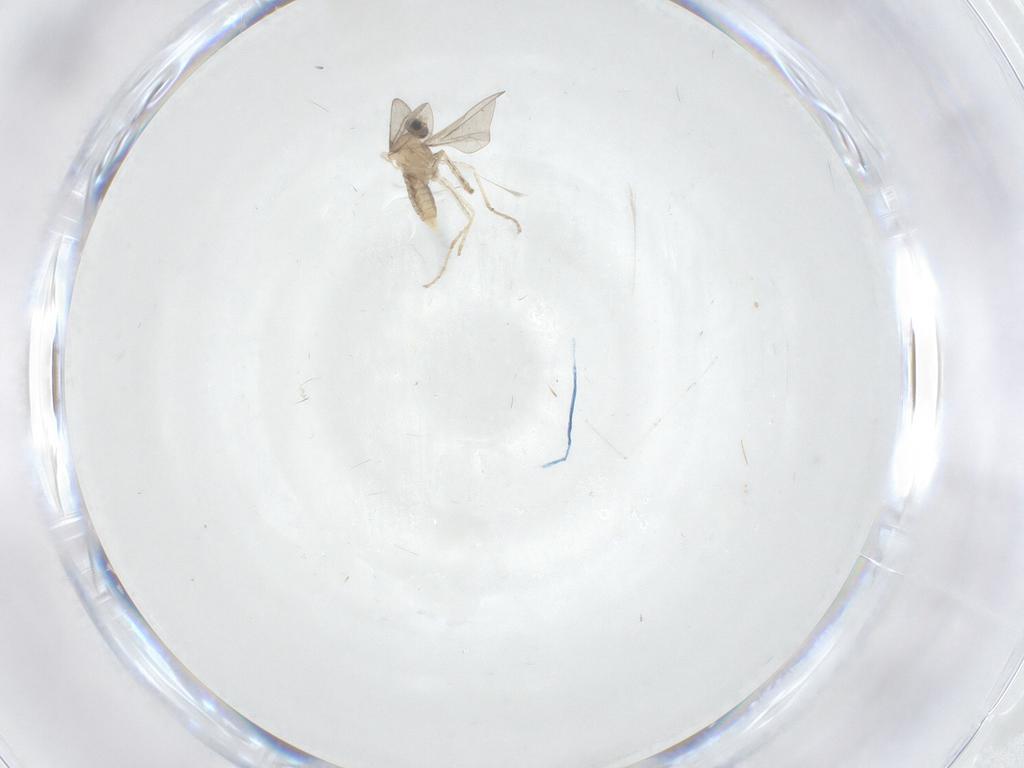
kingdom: Animalia
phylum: Arthropoda
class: Insecta
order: Diptera
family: Cecidomyiidae
